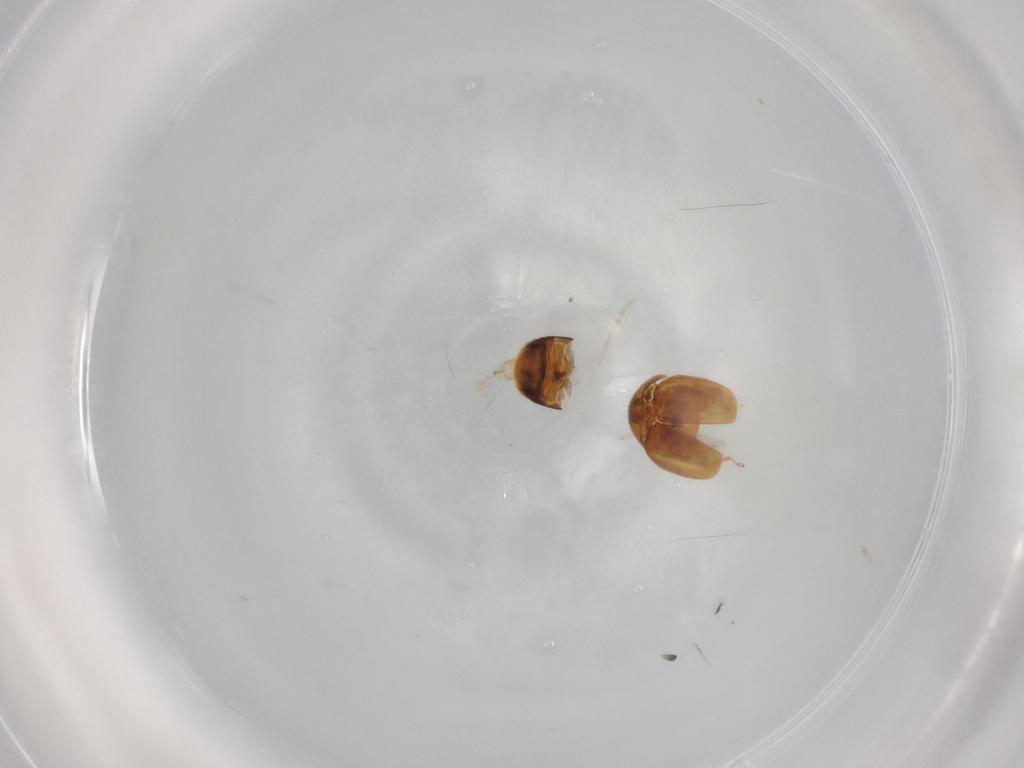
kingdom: Animalia
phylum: Arthropoda
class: Insecta
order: Coleoptera
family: Corylophidae
